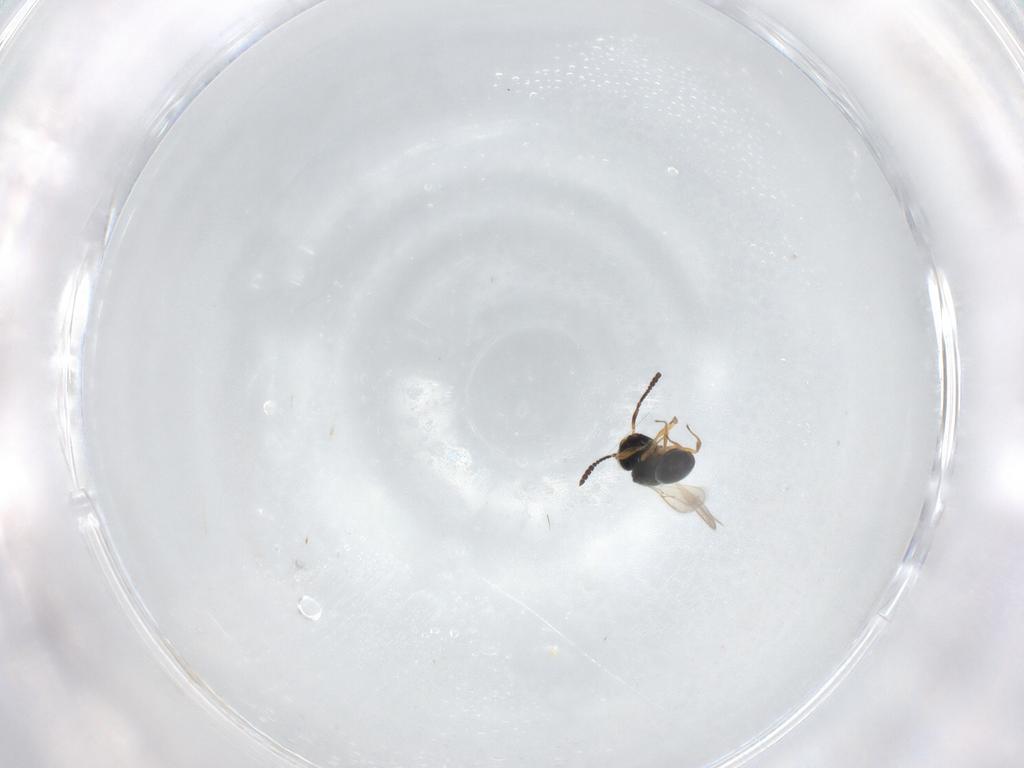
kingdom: Animalia
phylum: Arthropoda
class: Insecta
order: Hymenoptera
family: Scelionidae
